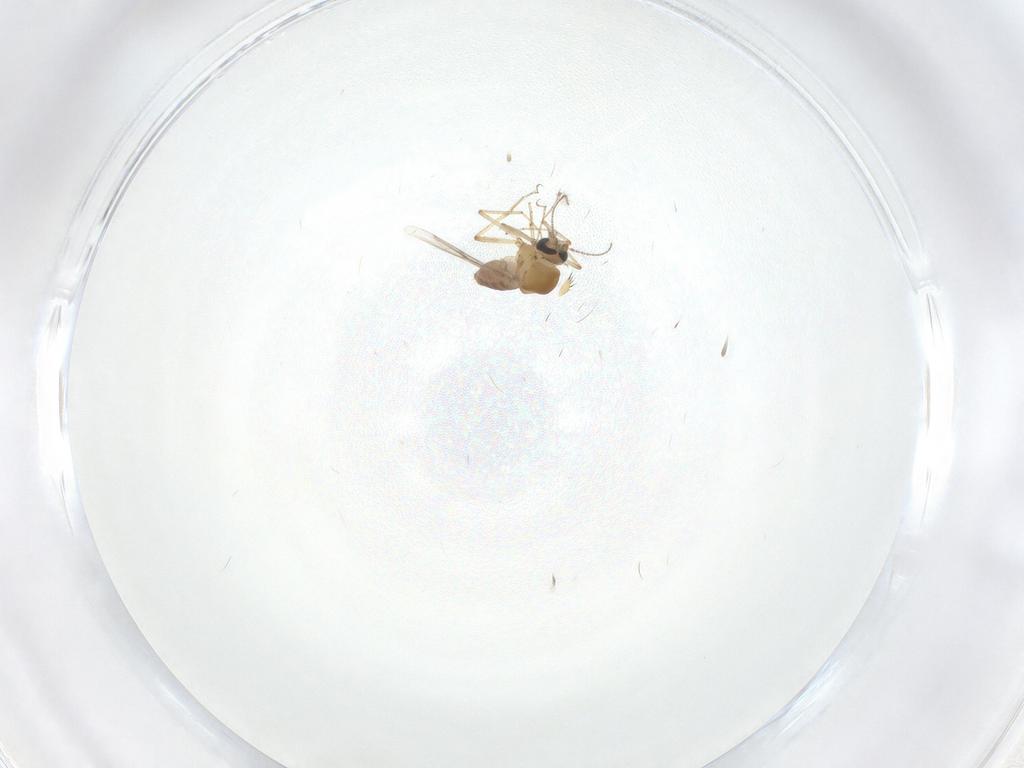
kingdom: Animalia
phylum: Arthropoda
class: Insecta
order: Diptera
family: Phoridae
